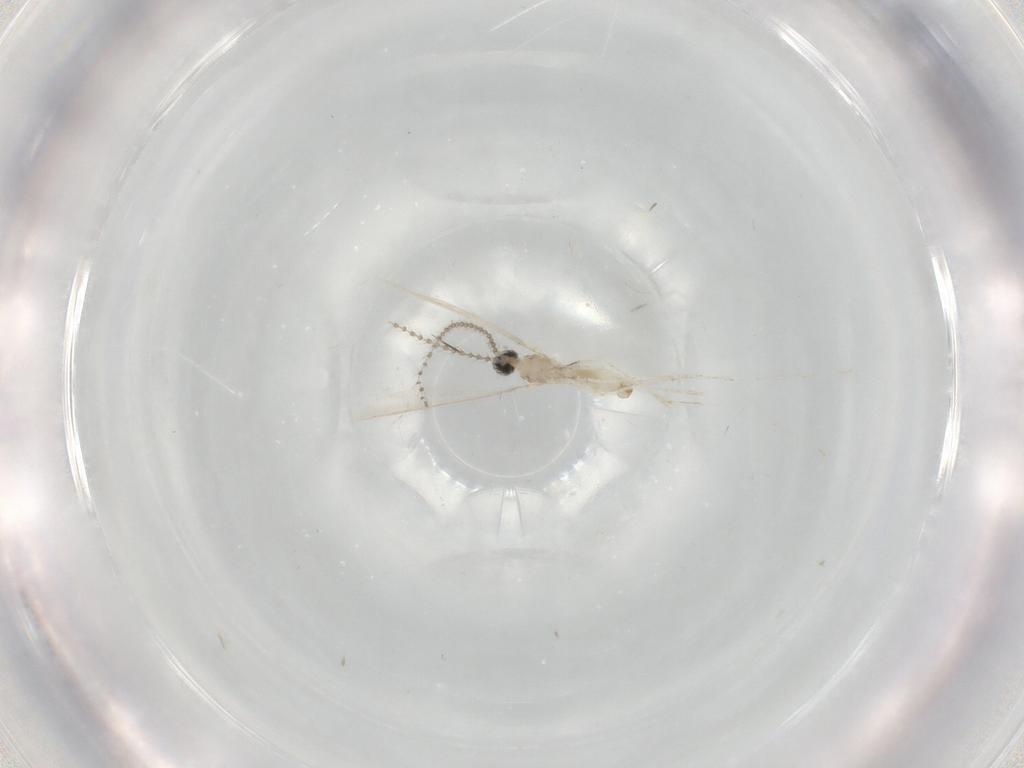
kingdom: Animalia
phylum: Arthropoda
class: Insecta
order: Diptera
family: Cecidomyiidae
